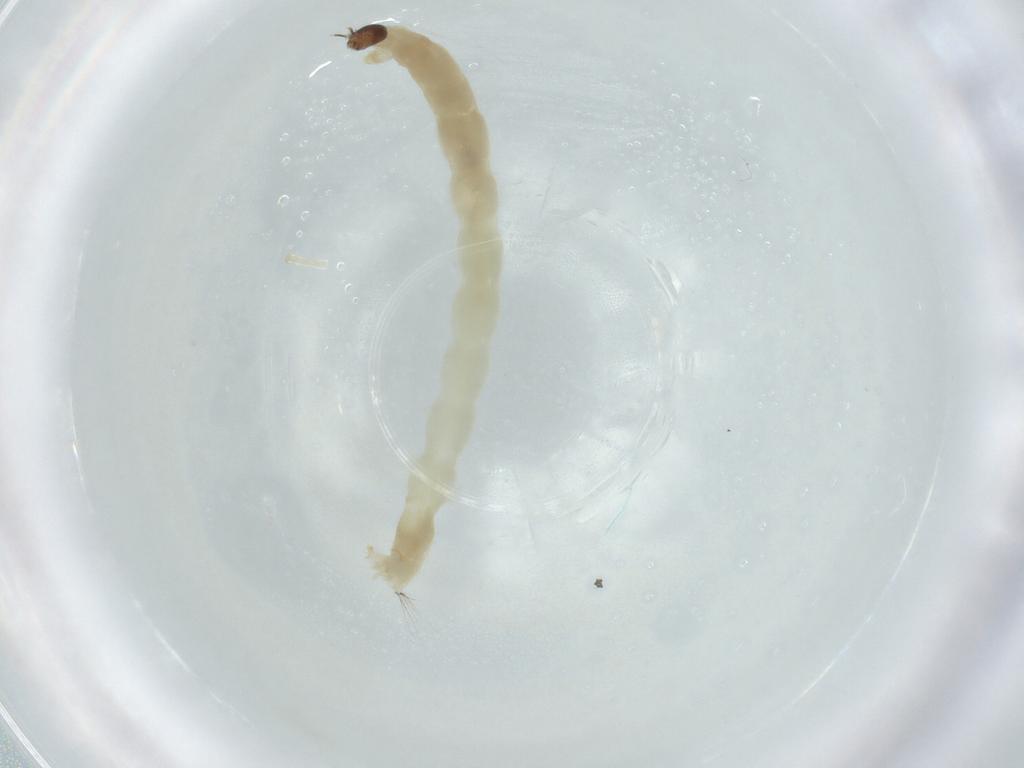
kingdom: Animalia
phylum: Arthropoda
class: Insecta
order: Diptera
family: Chironomidae
